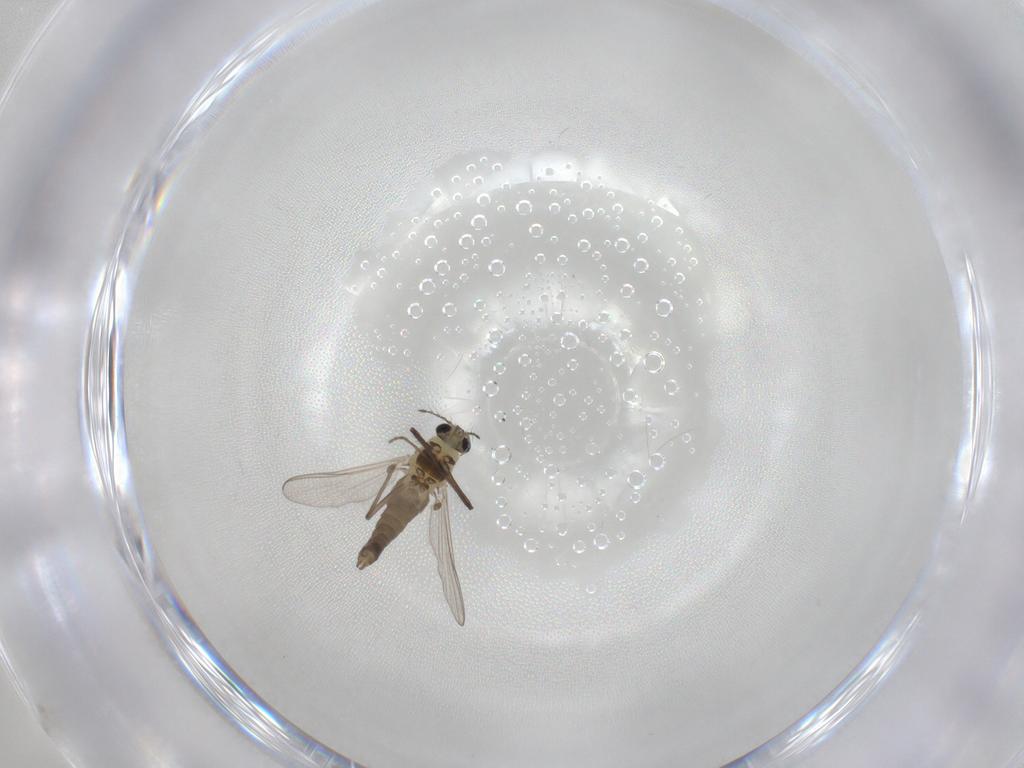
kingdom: Animalia
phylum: Arthropoda
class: Insecta
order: Diptera
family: Chironomidae
